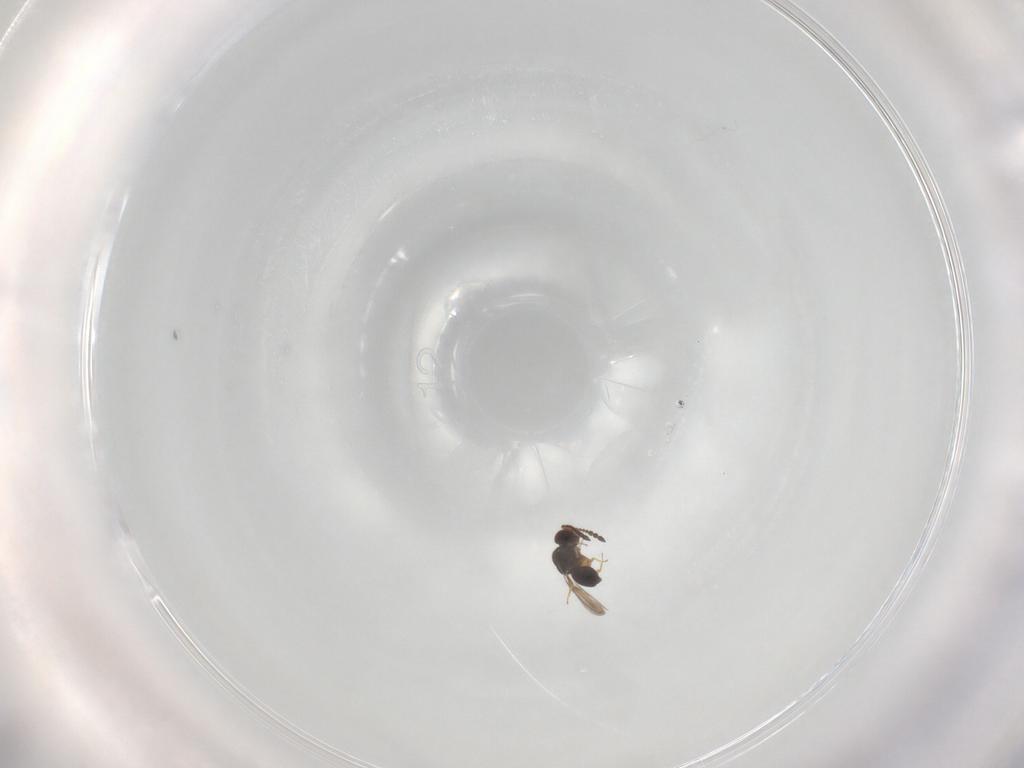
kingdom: Animalia
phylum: Arthropoda
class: Insecta
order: Hymenoptera
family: Ceraphronidae
